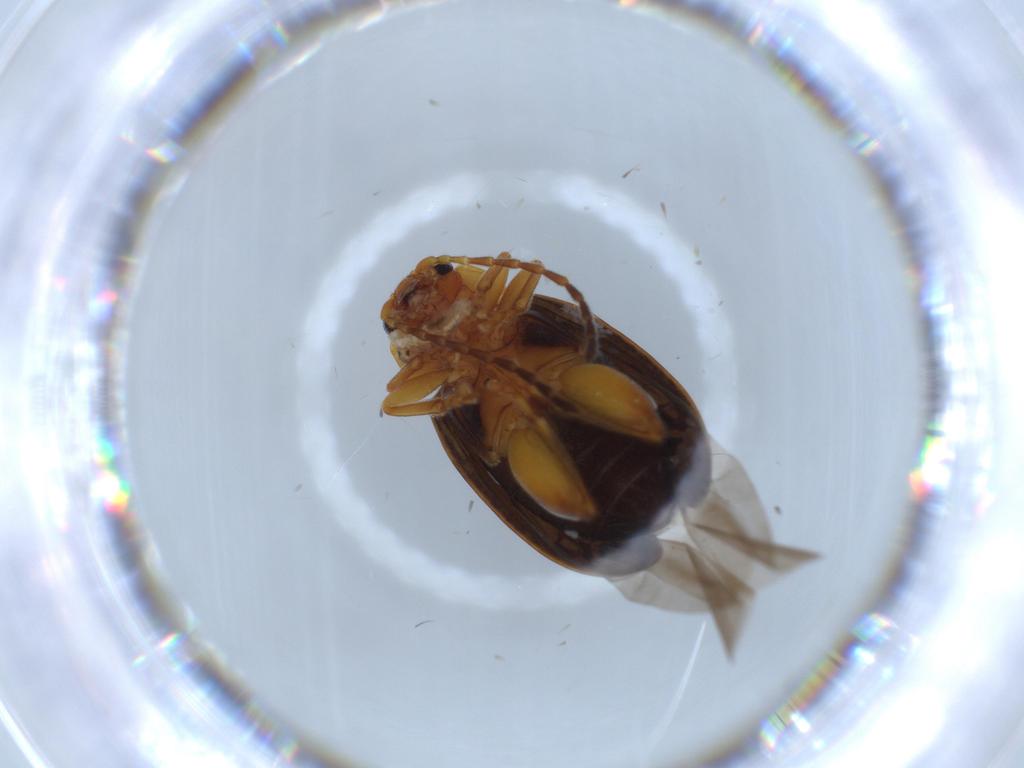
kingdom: Animalia
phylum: Arthropoda
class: Insecta
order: Coleoptera
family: Ptinidae
